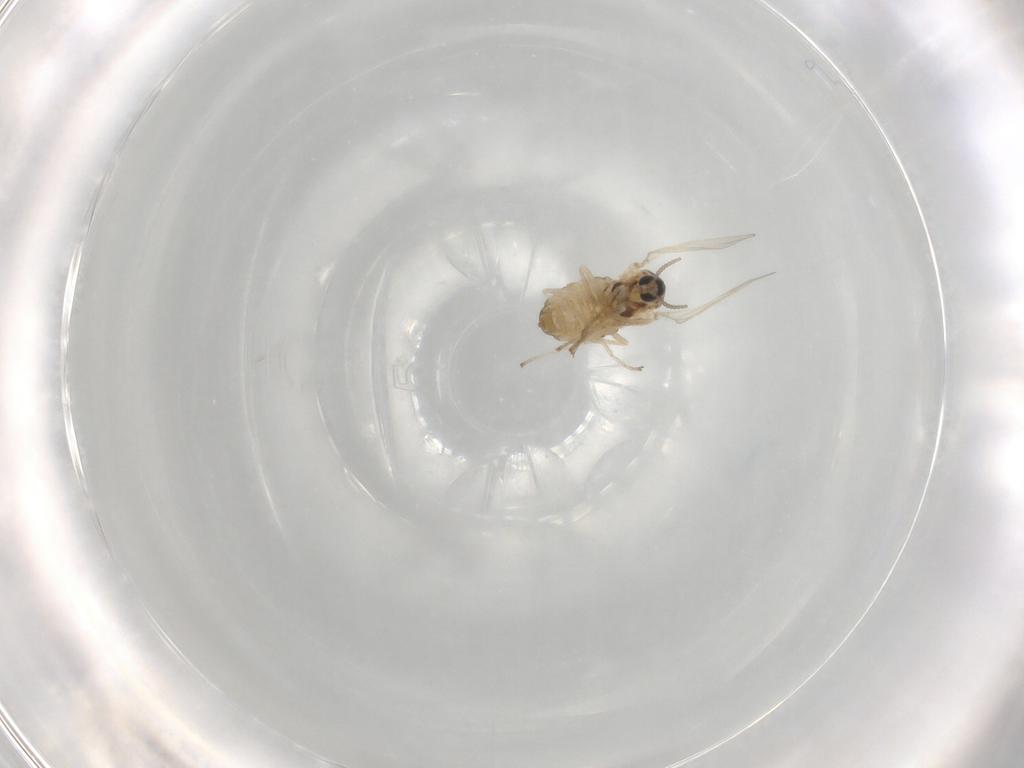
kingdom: Animalia
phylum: Arthropoda
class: Insecta
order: Diptera
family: Cecidomyiidae
